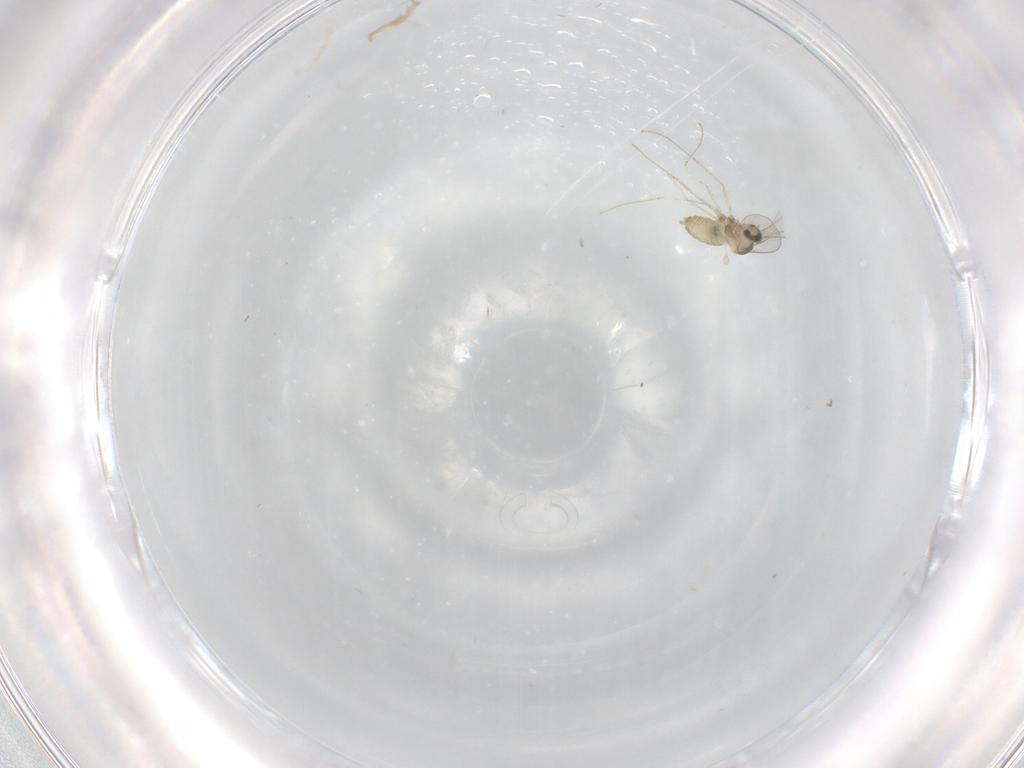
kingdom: Animalia
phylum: Arthropoda
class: Insecta
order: Diptera
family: Cecidomyiidae
